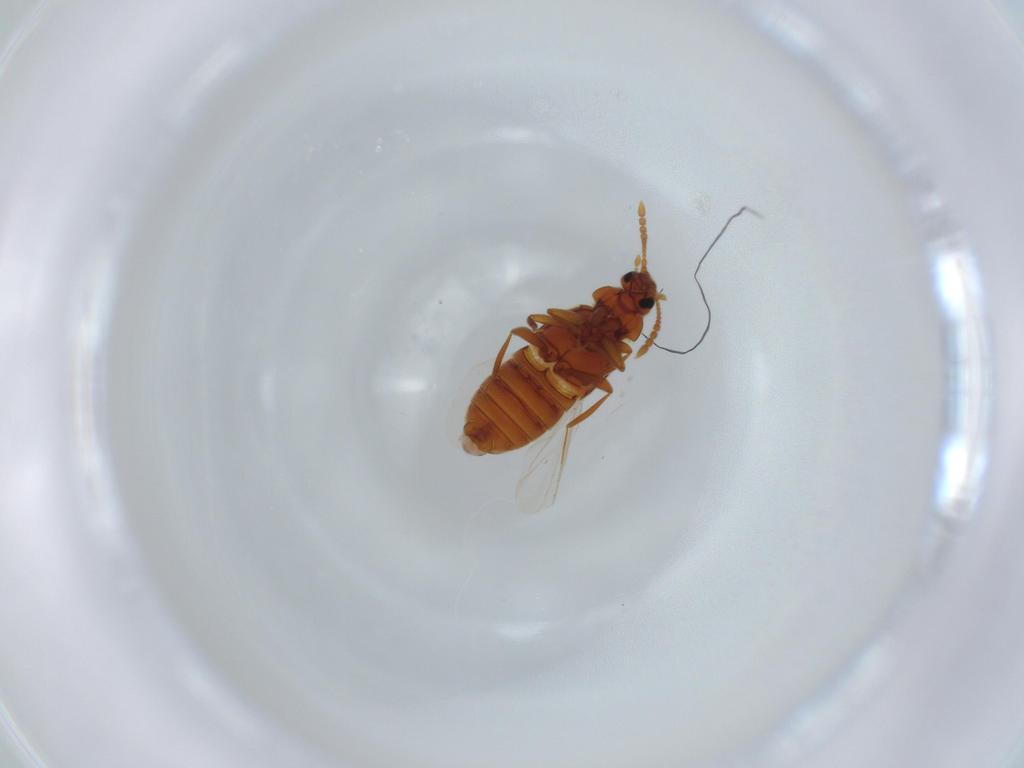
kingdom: Animalia
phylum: Arthropoda
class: Insecta
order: Coleoptera
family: Staphylinidae
